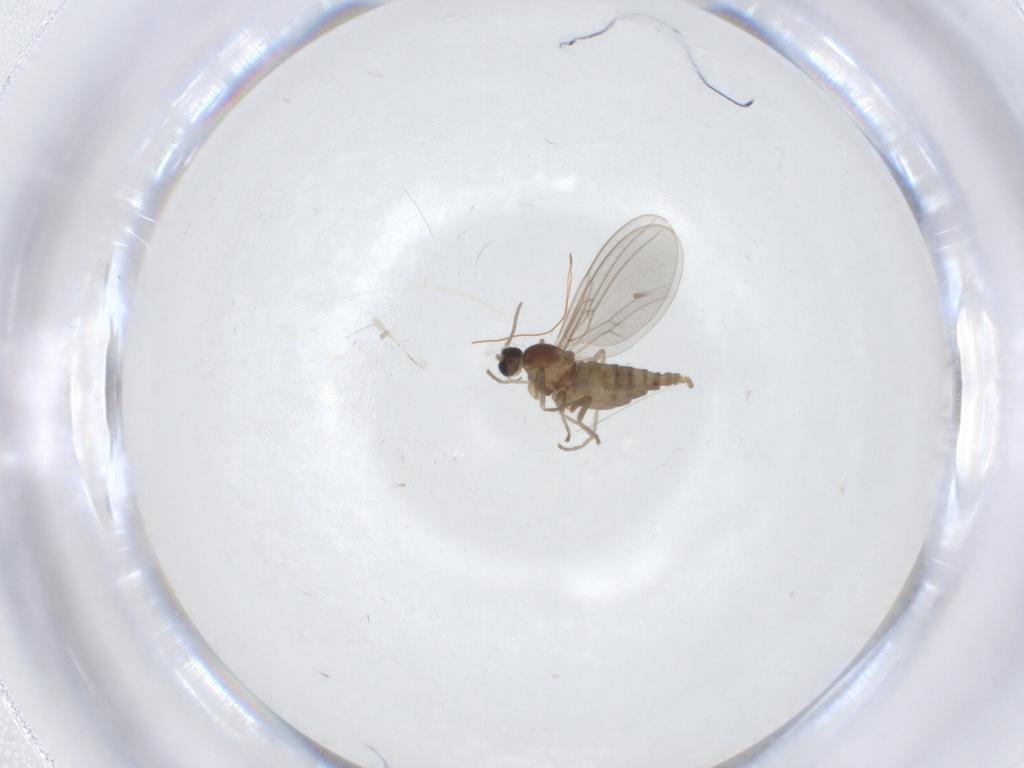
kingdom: Animalia
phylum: Arthropoda
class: Insecta
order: Diptera
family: Cecidomyiidae
